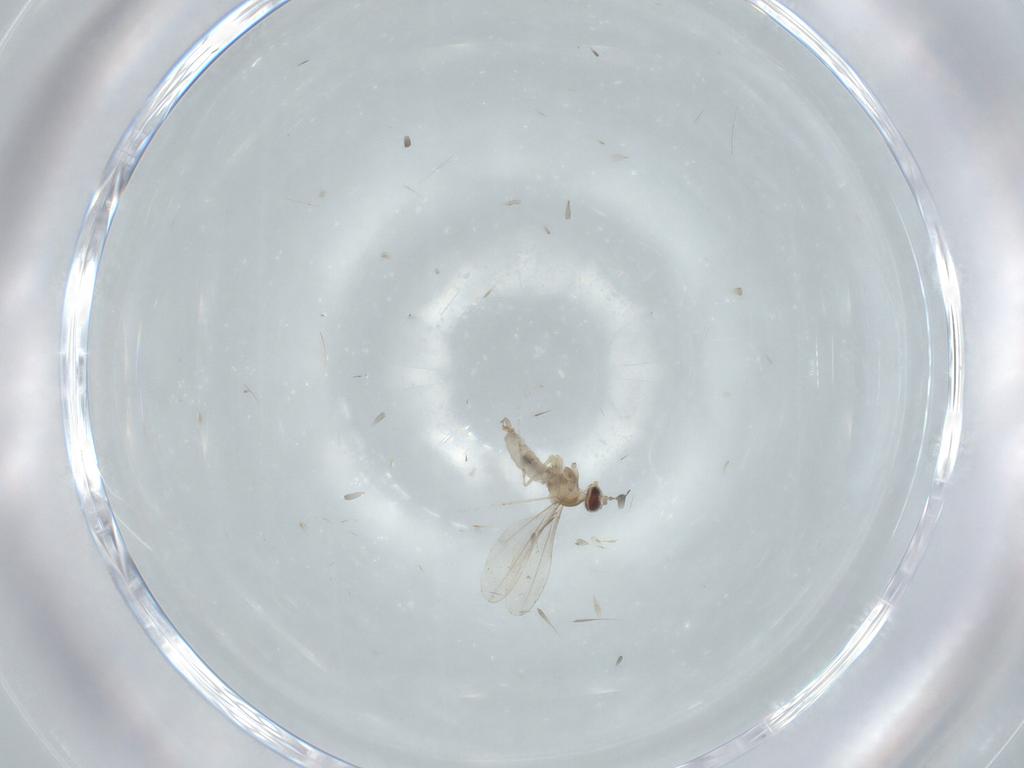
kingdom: Animalia
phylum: Arthropoda
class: Insecta
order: Diptera
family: Cecidomyiidae
